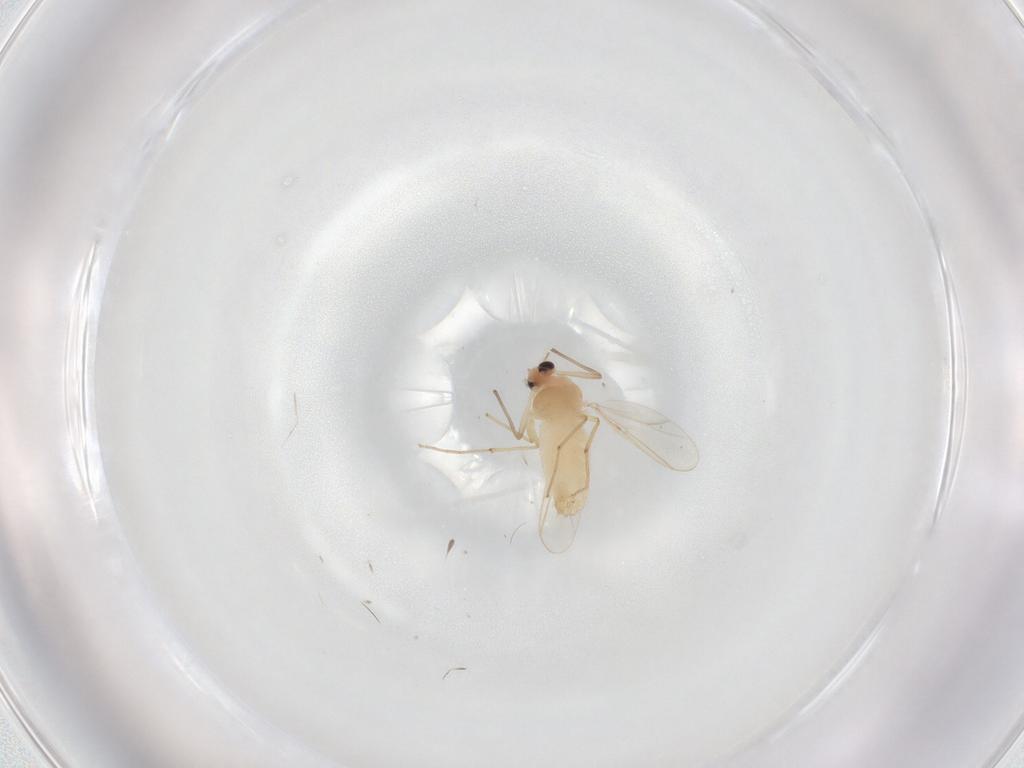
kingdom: Animalia
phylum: Arthropoda
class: Insecta
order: Diptera
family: Chironomidae
